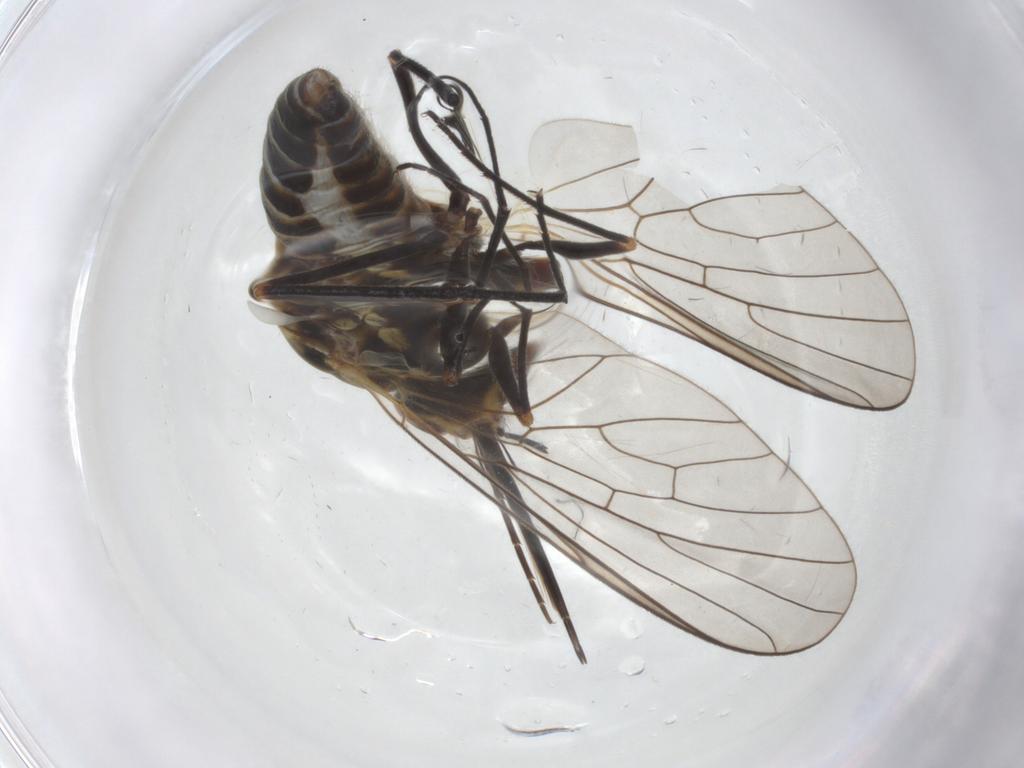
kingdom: Animalia
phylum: Arthropoda
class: Insecta
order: Diptera
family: Bombyliidae
